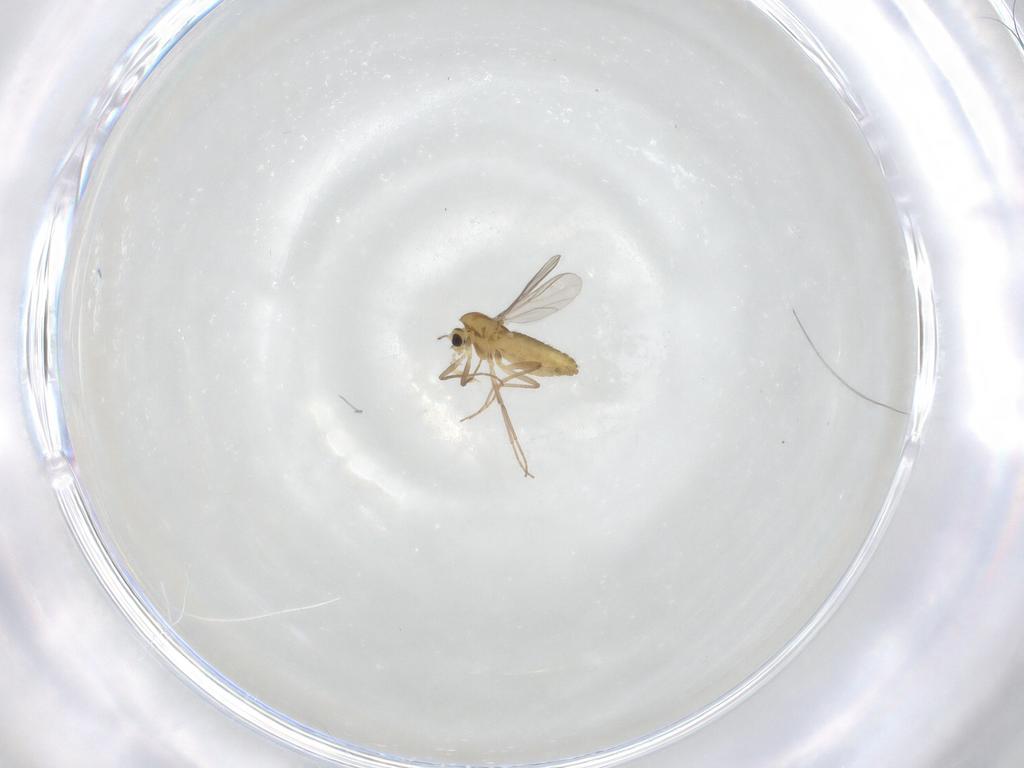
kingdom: Animalia
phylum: Arthropoda
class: Insecta
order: Diptera
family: Chironomidae
